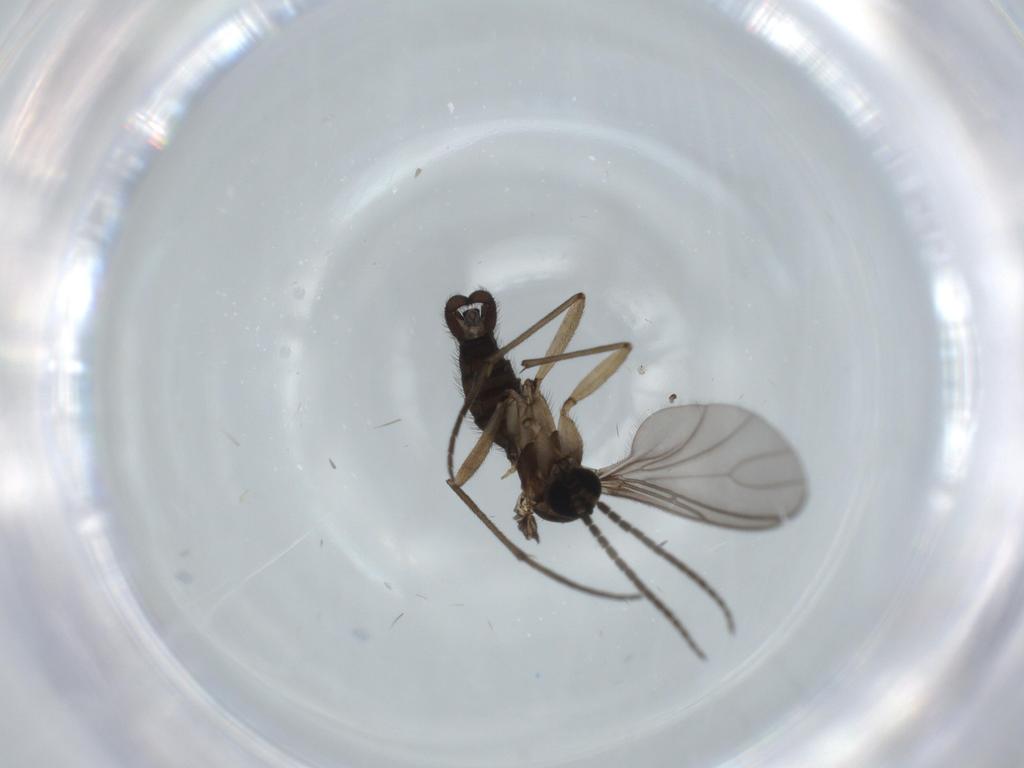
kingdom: Animalia
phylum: Arthropoda
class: Insecta
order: Diptera
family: Sciaridae
